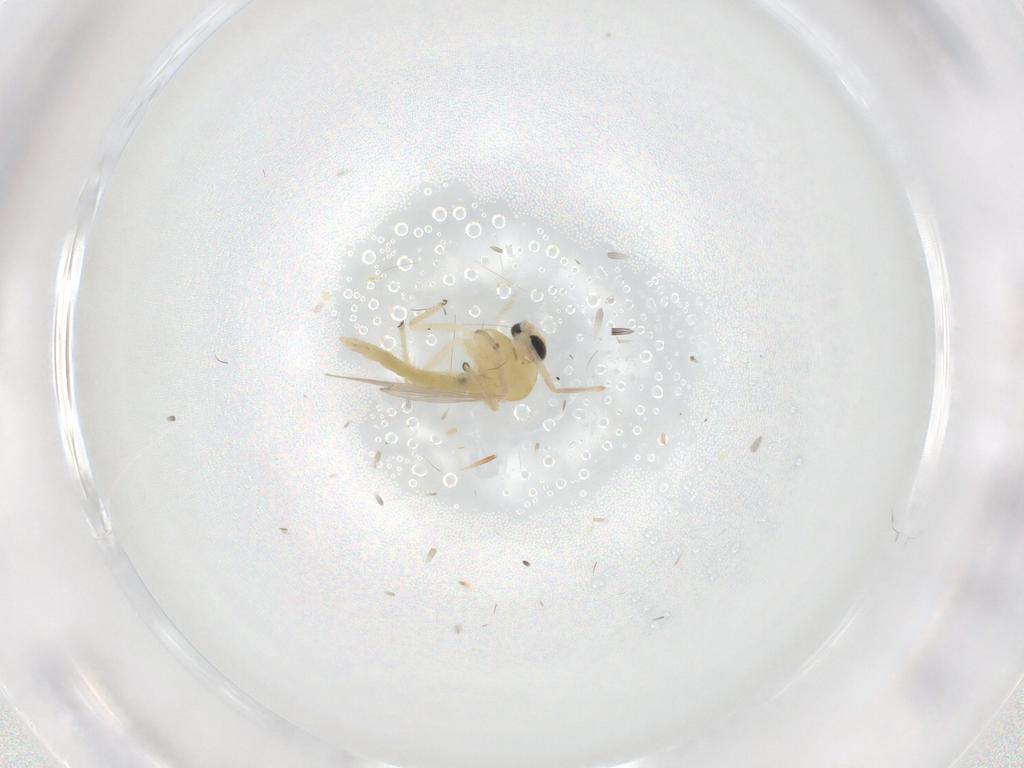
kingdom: Animalia
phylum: Arthropoda
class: Insecta
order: Diptera
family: Chironomidae
